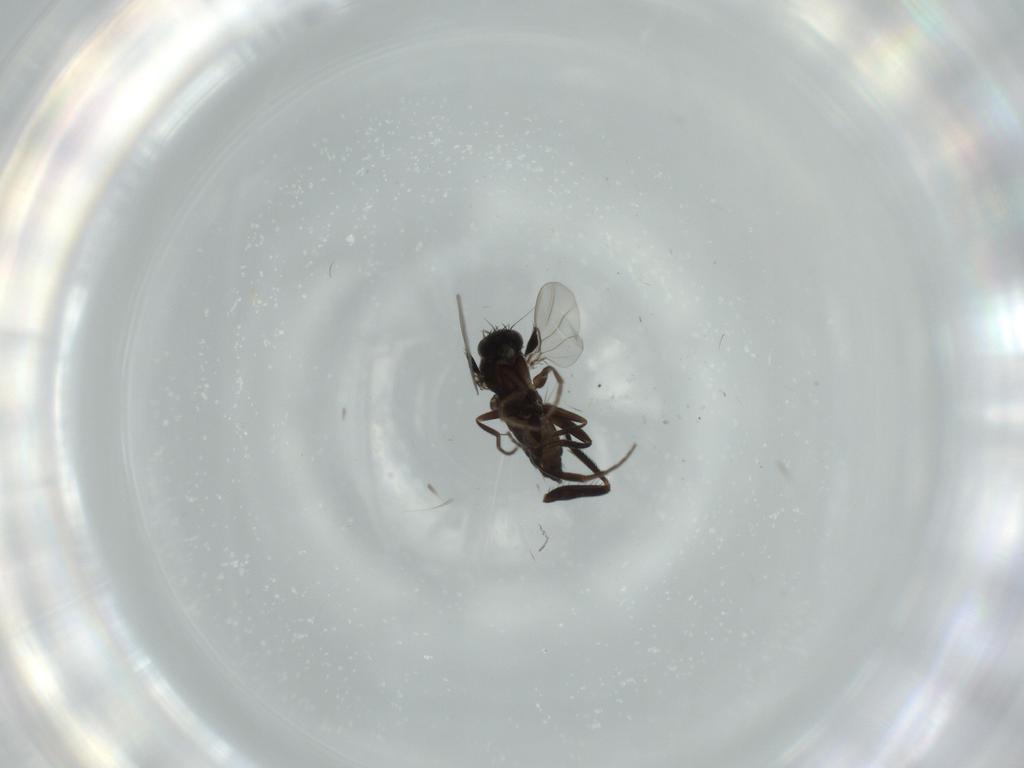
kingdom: Animalia
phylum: Arthropoda
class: Insecta
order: Diptera
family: Milichiidae
